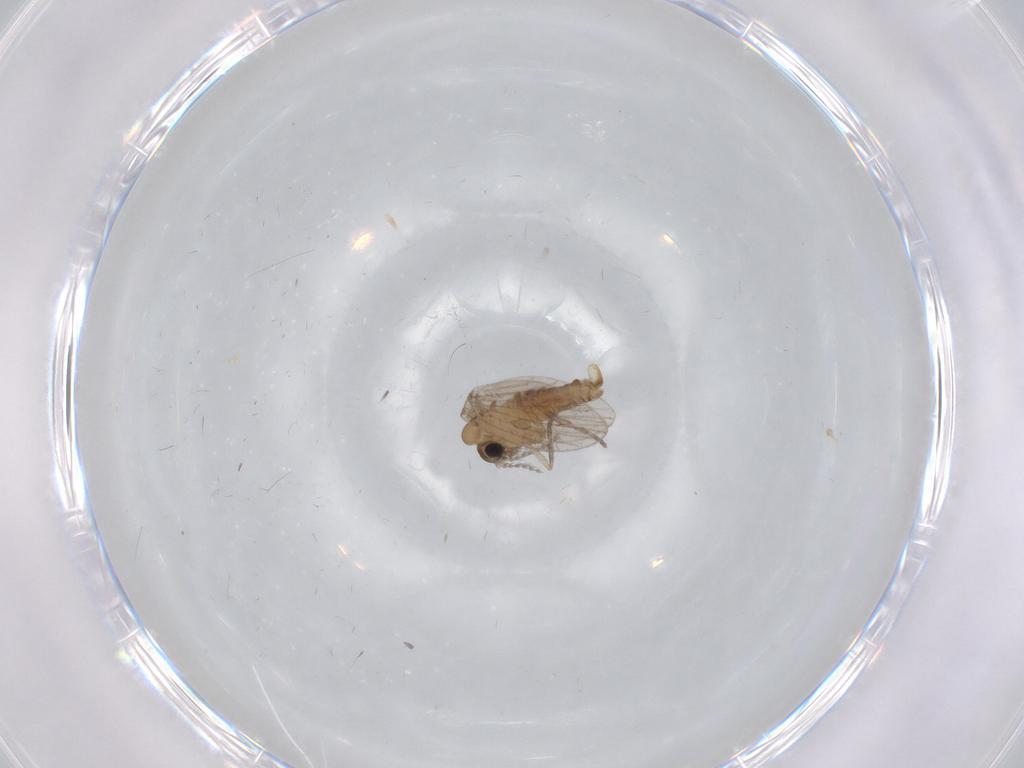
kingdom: Animalia
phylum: Arthropoda
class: Insecta
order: Diptera
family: Psychodidae
